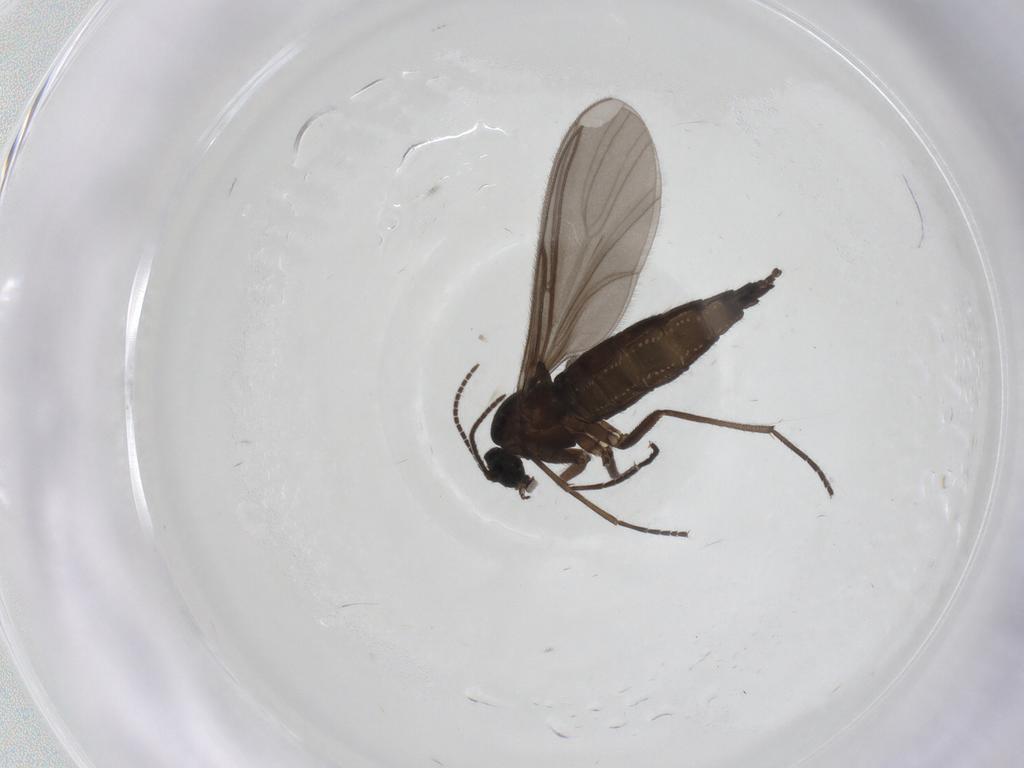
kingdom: Animalia
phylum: Arthropoda
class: Insecta
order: Diptera
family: Sciaridae
